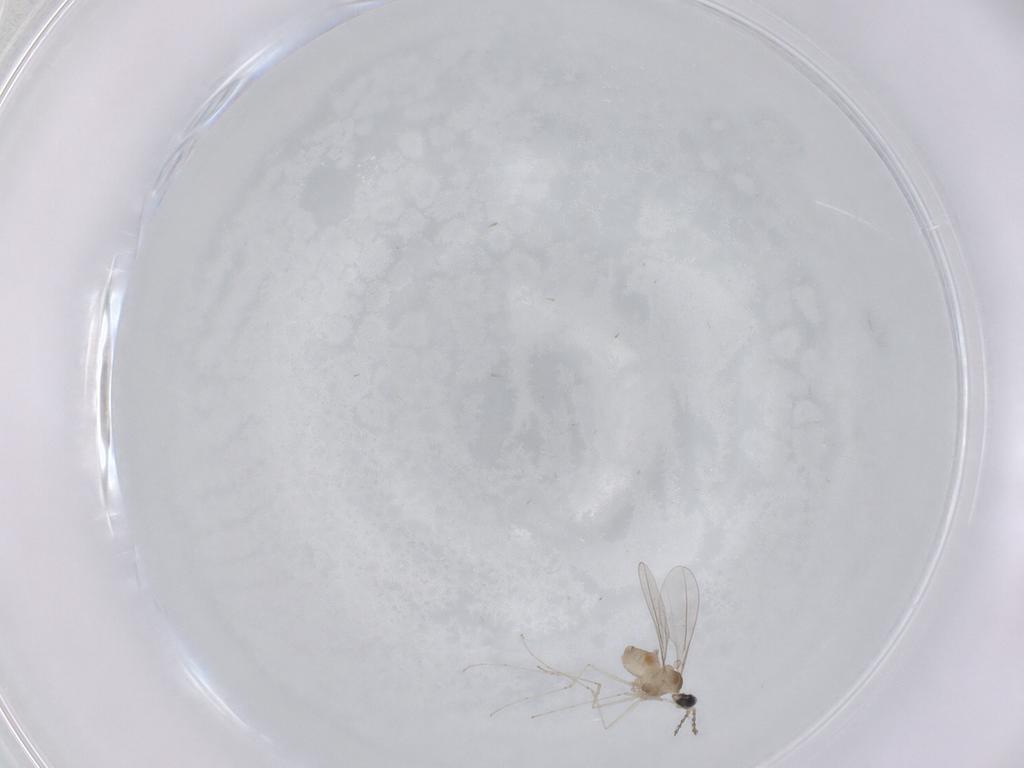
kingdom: Animalia
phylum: Arthropoda
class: Insecta
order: Diptera
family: Cecidomyiidae
